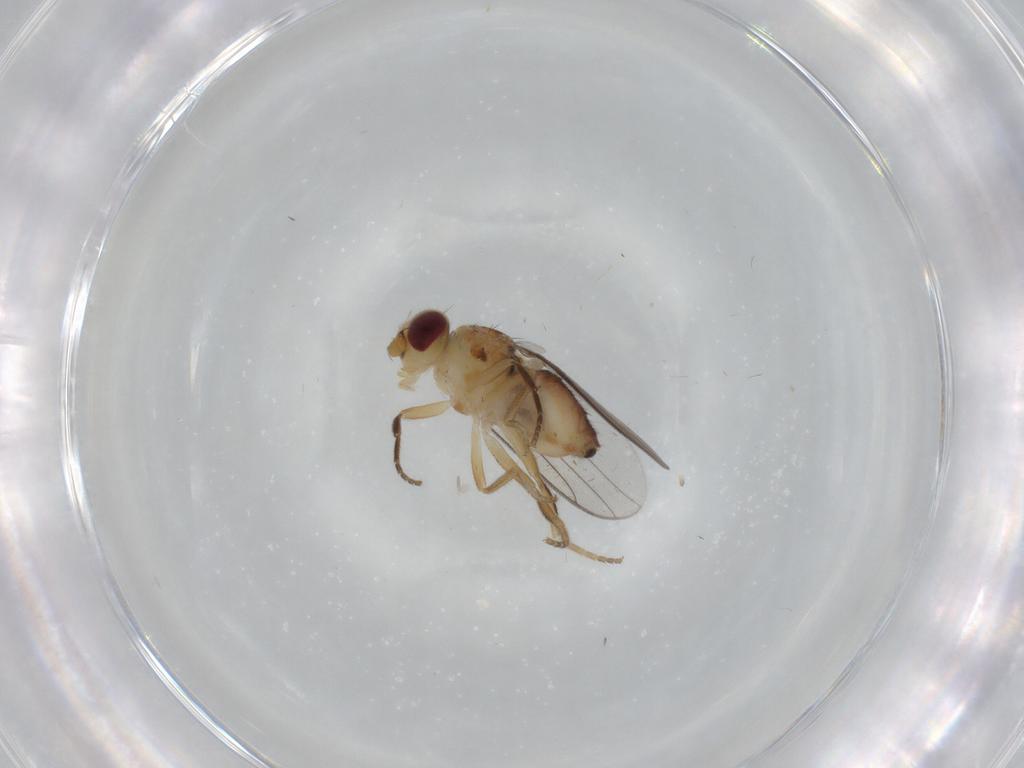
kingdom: Animalia
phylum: Arthropoda
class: Insecta
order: Diptera
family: Chloropidae
